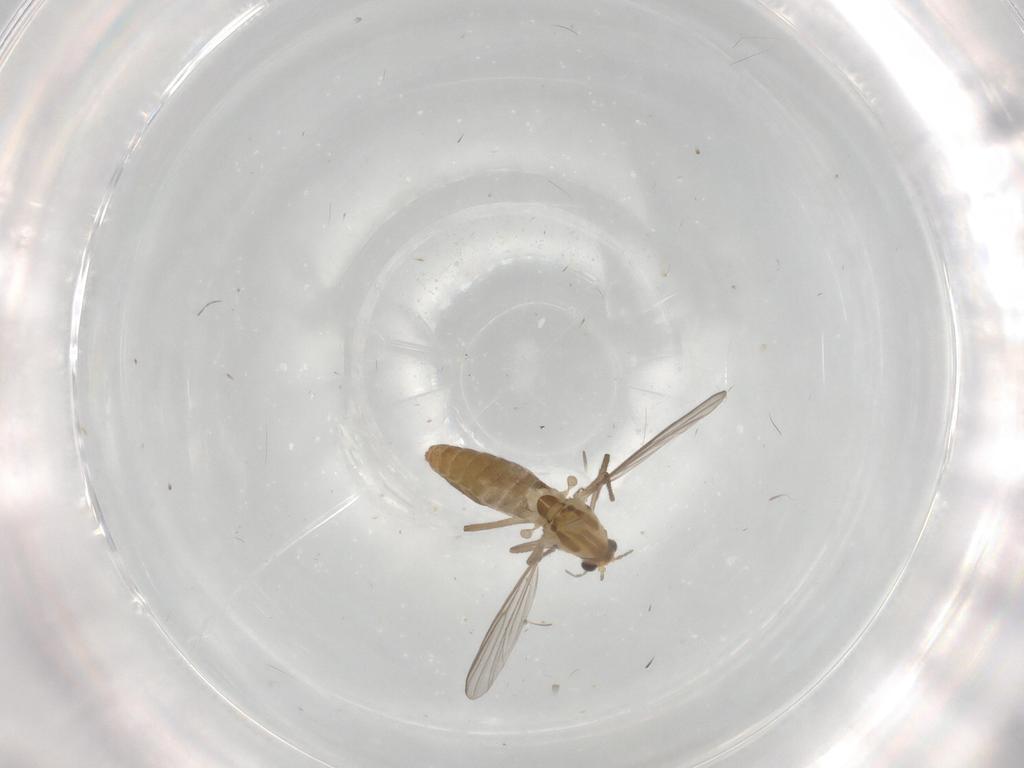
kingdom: Animalia
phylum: Arthropoda
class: Insecta
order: Diptera
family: Chironomidae
